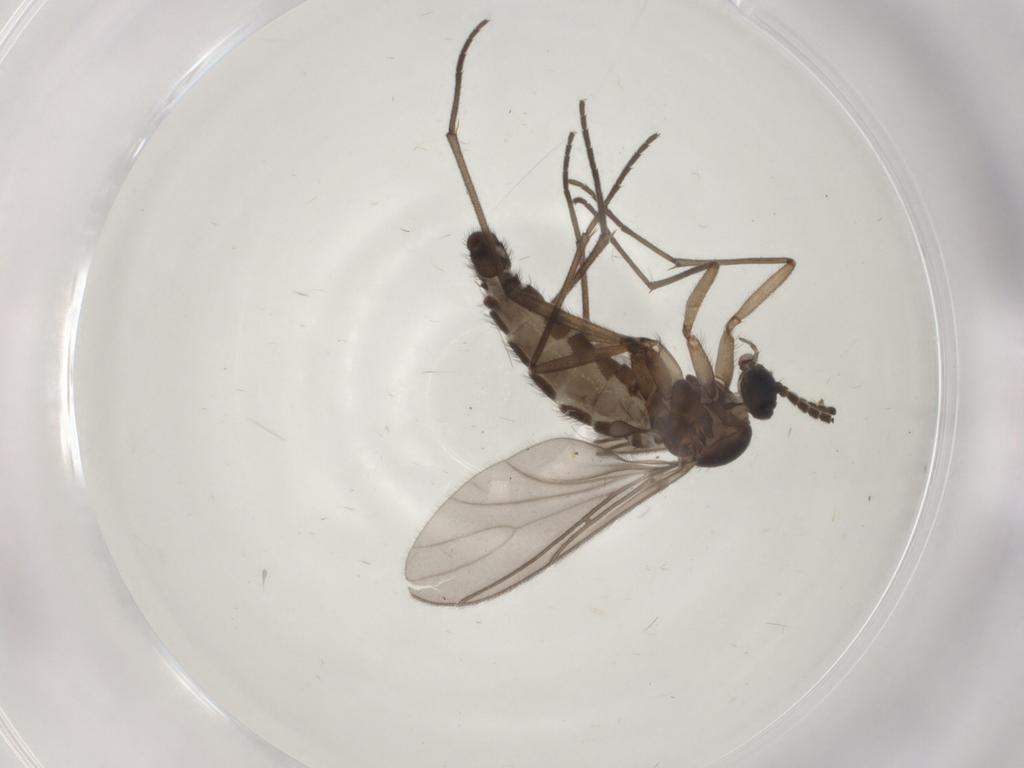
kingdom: Animalia
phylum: Arthropoda
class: Insecta
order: Diptera
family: Sciaridae
